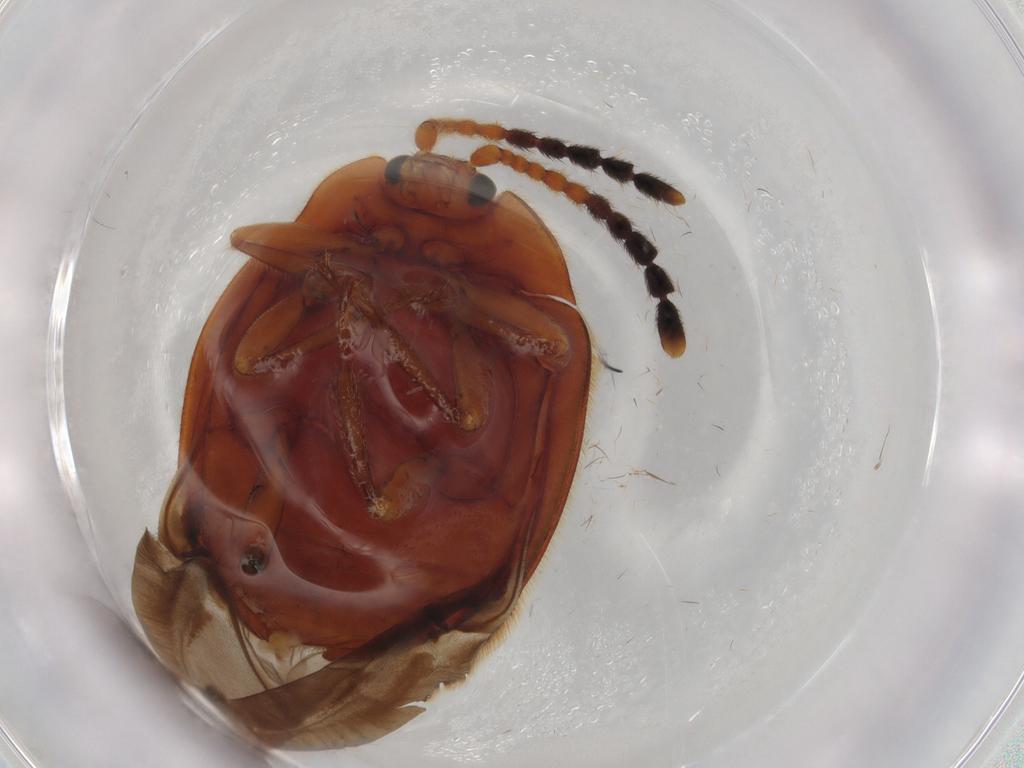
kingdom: Animalia
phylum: Arthropoda
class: Insecta
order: Coleoptera
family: Endomychidae
